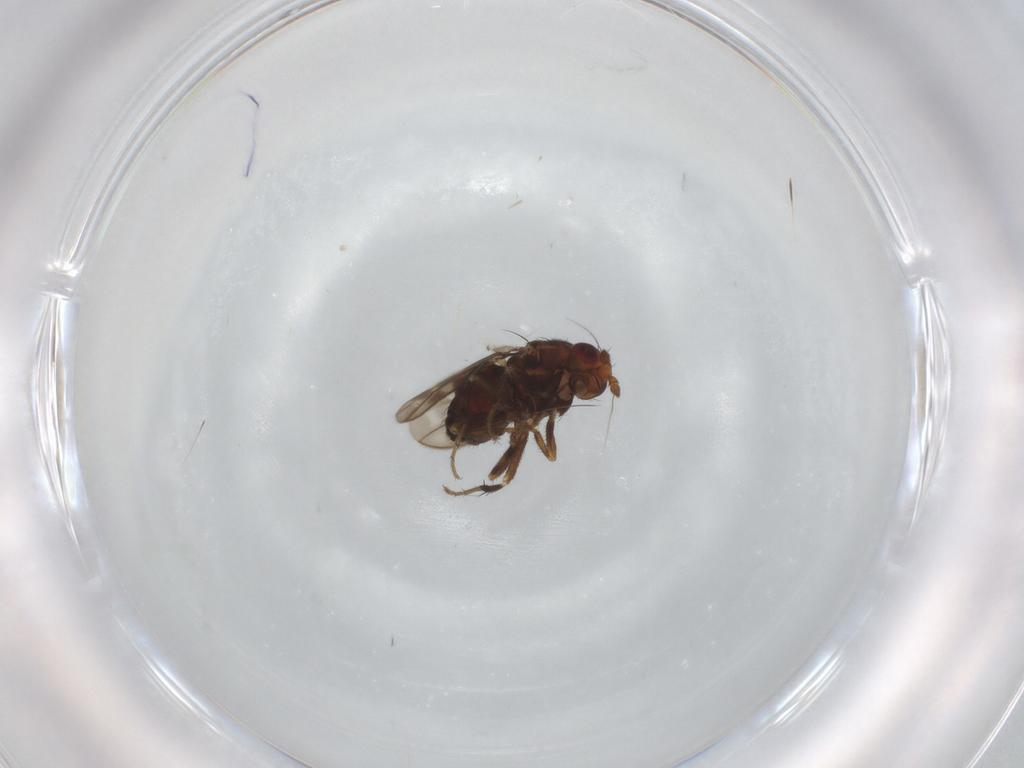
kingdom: Animalia
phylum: Arthropoda
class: Insecta
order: Diptera
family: Sphaeroceridae
